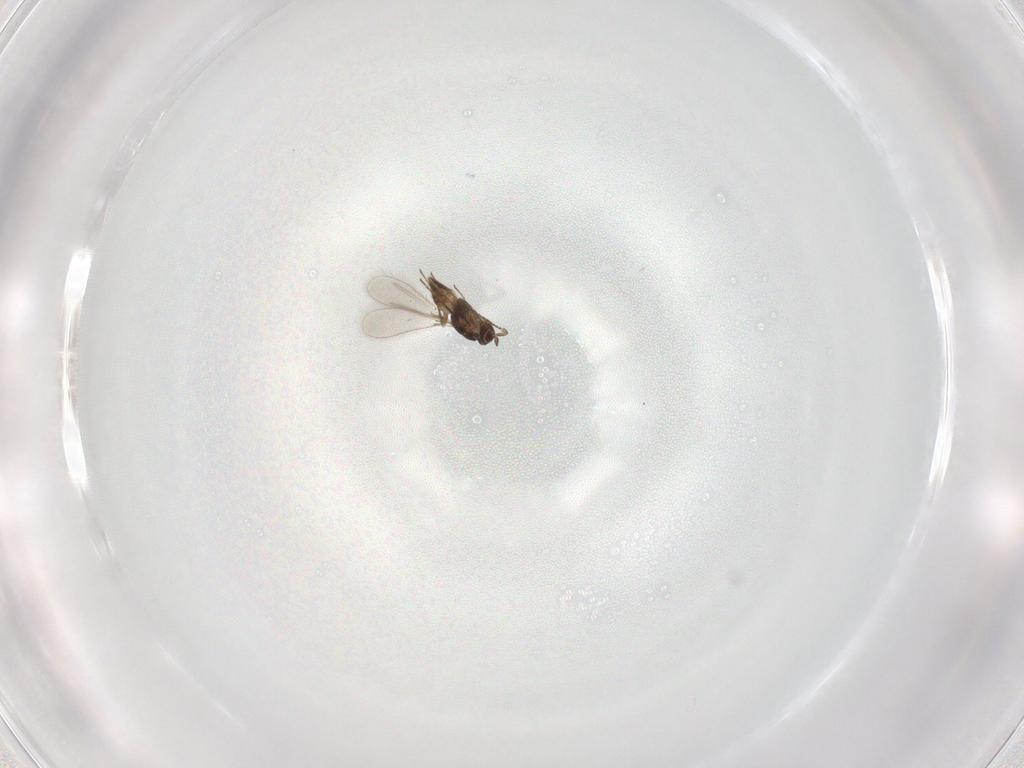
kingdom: Animalia
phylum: Arthropoda
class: Insecta
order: Hymenoptera
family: Mymaridae
